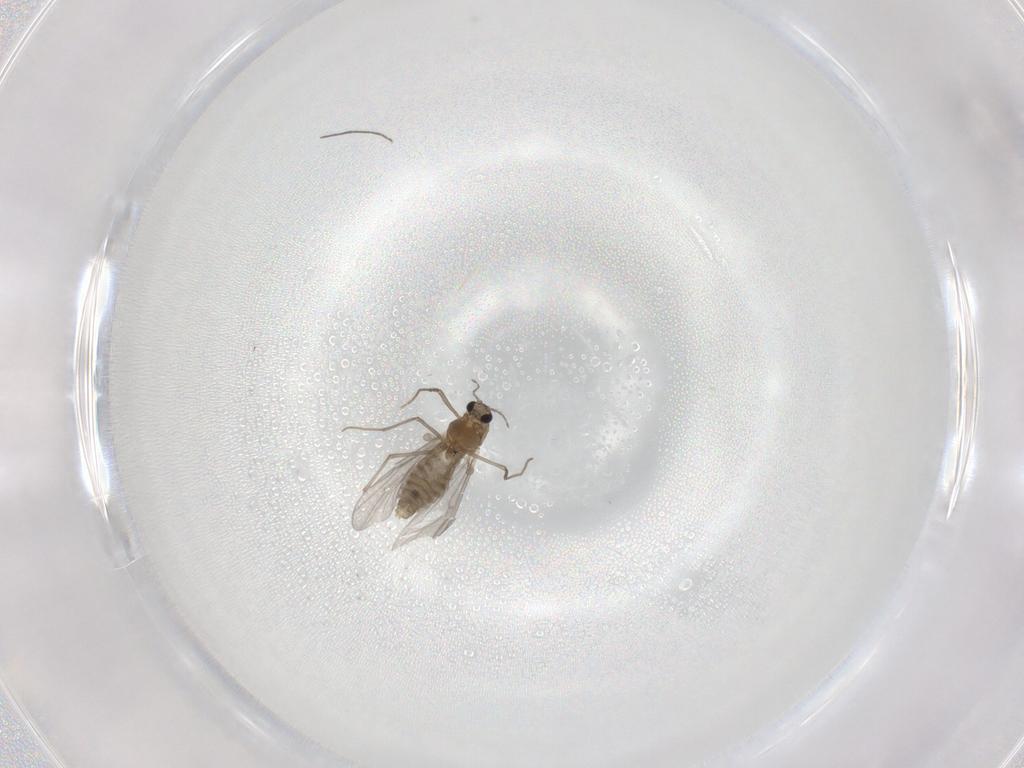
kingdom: Animalia
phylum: Arthropoda
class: Insecta
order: Diptera
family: Chironomidae
